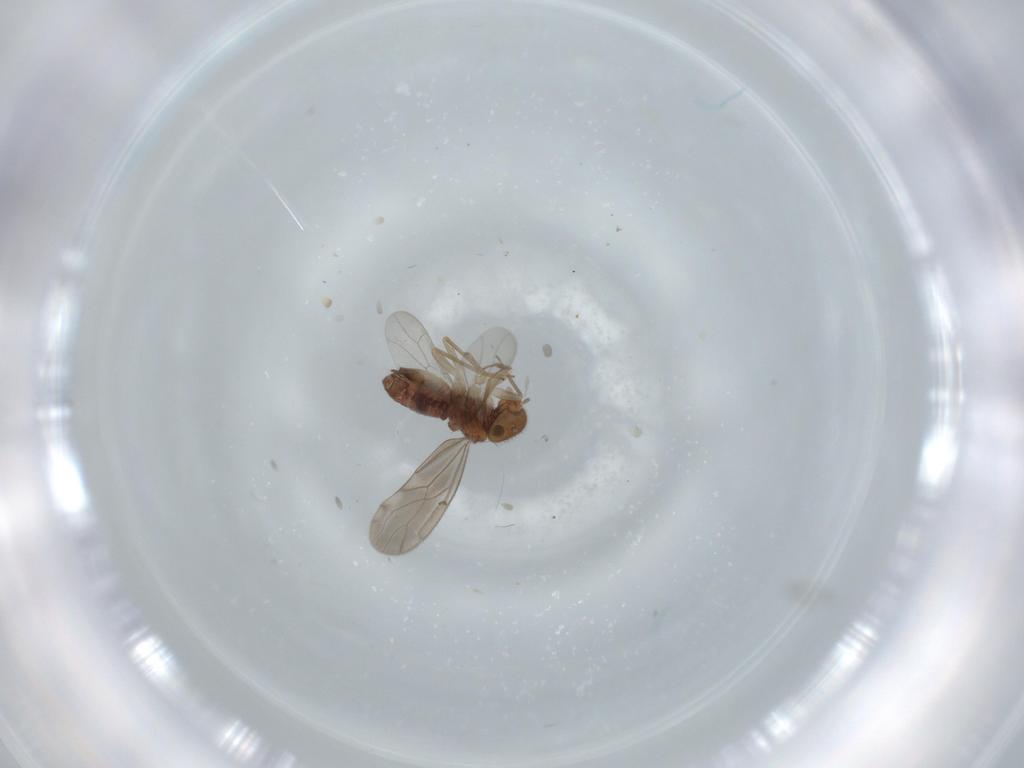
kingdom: Animalia
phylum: Arthropoda
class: Insecta
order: Psocodea
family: Ectopsocidae
